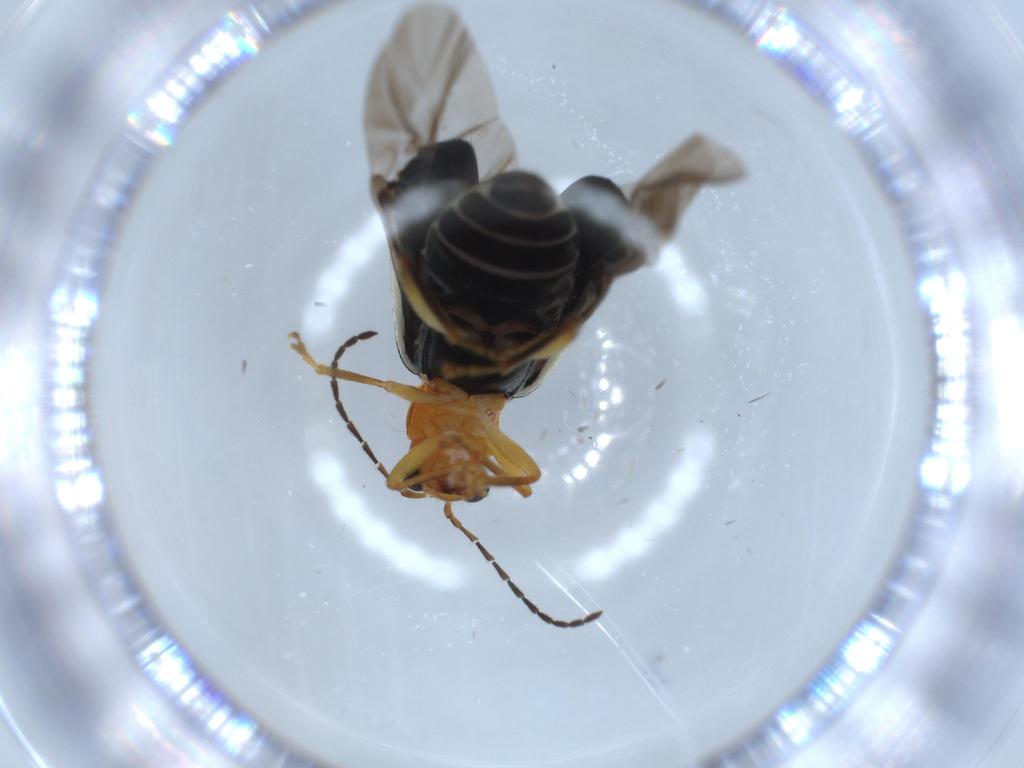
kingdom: Animalia
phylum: Arthropoda
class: Insecta
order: Coleoptera
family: Chrysomelidae
